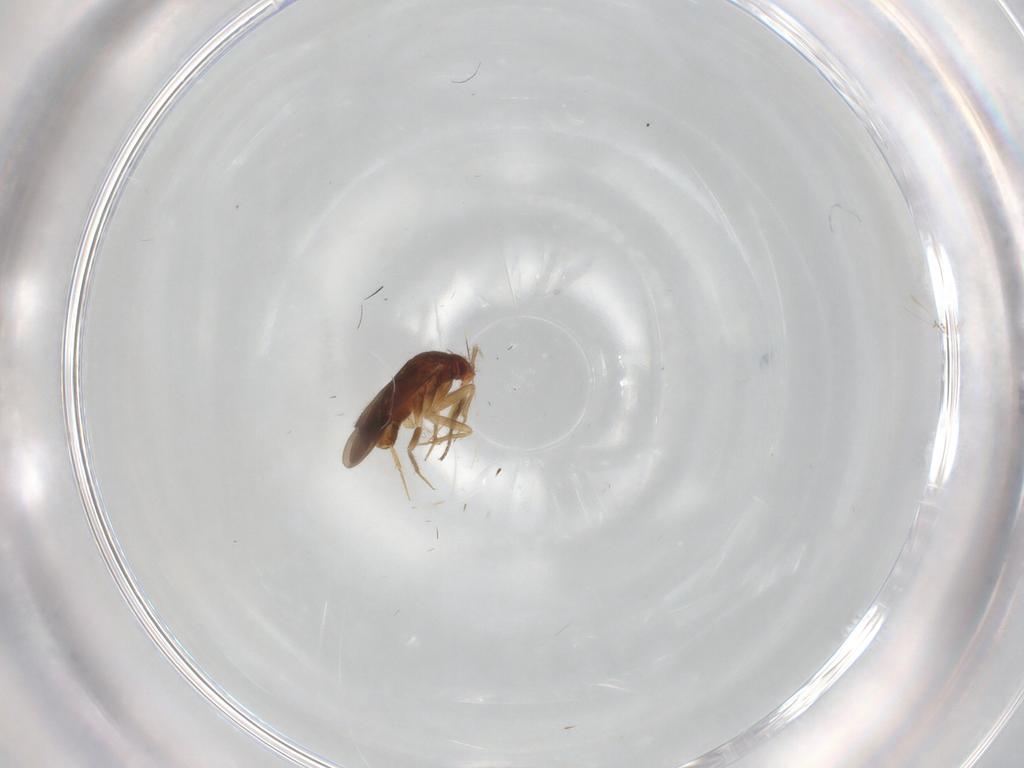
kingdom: Animalia
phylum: Arthropoda
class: Insecta
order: Hemiptera
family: Ceratocombidae
